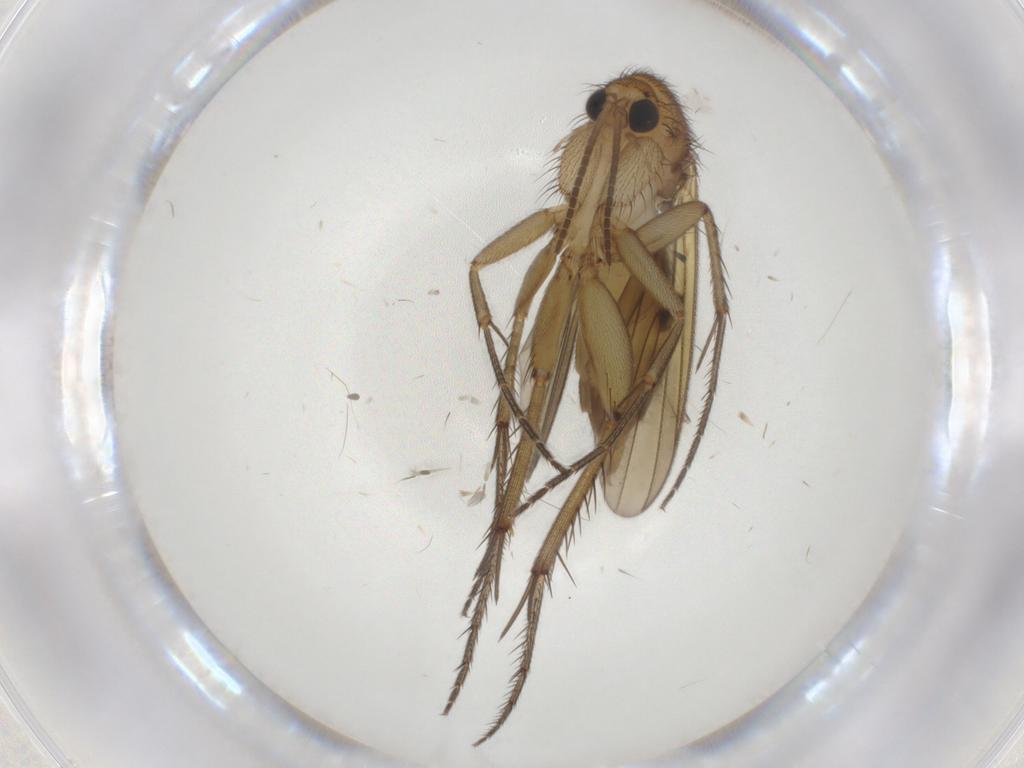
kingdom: Animalia
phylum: Arthropoda
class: Insecta
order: Diptera
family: Mycetophilidae
